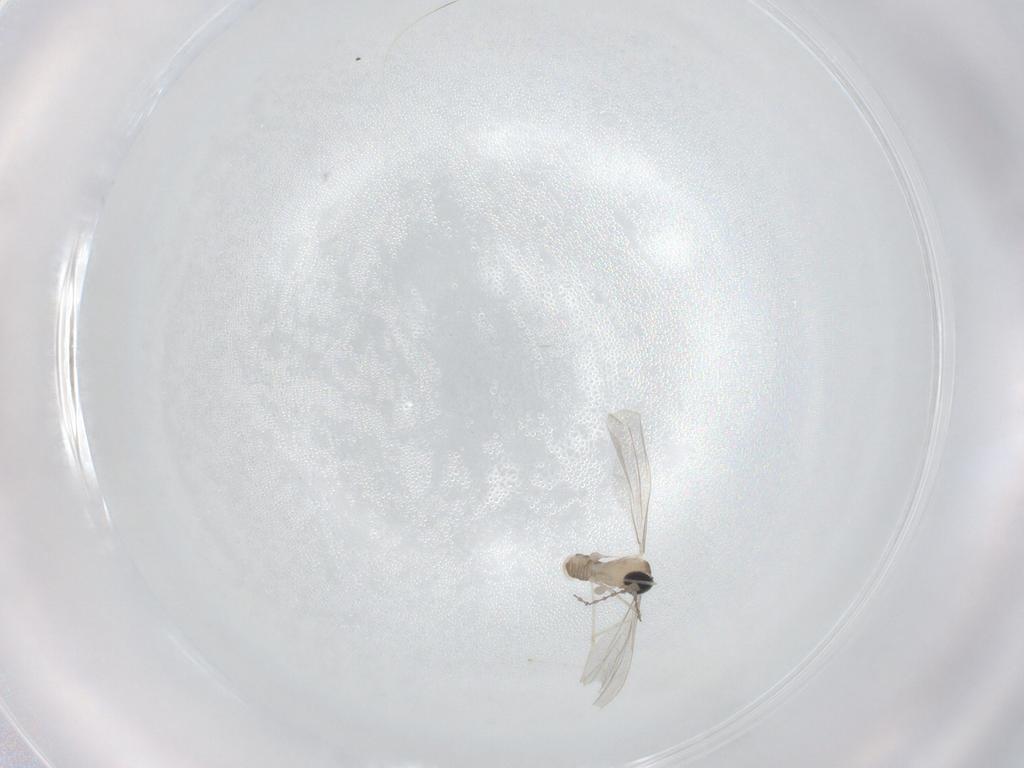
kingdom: Animalia
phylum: Arthropoda
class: Insecta
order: Diptera
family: Cecidomyiidae
